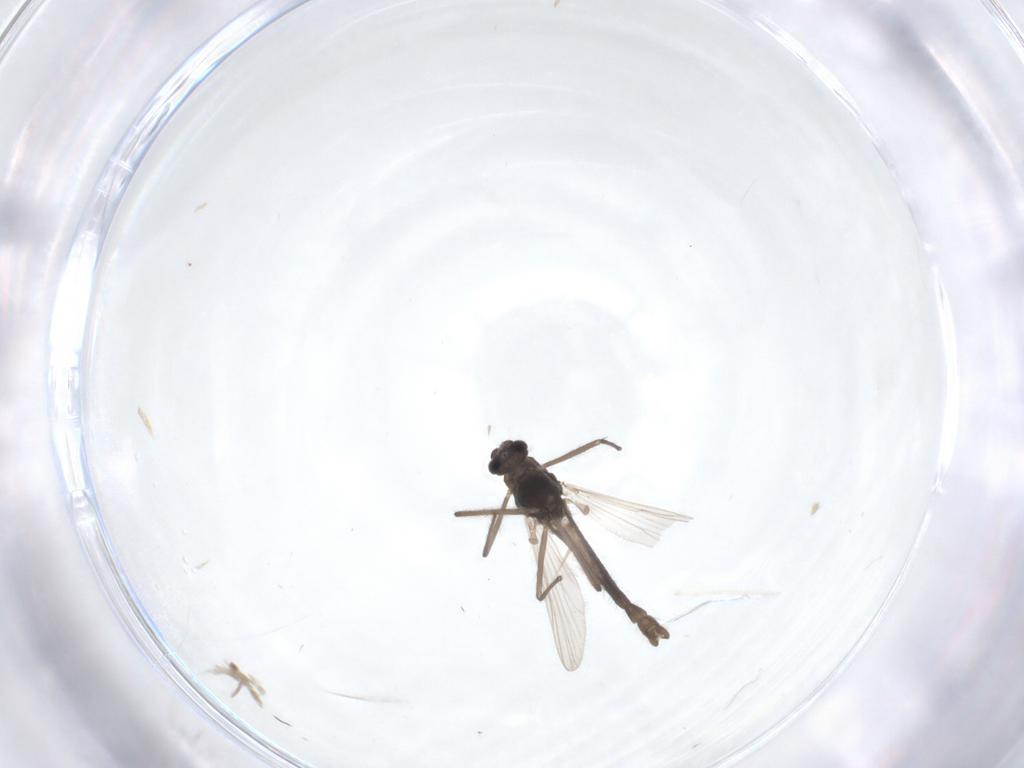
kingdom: Animalia
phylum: Arthropoda
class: Insecta
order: Diptera
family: Chironomidae
